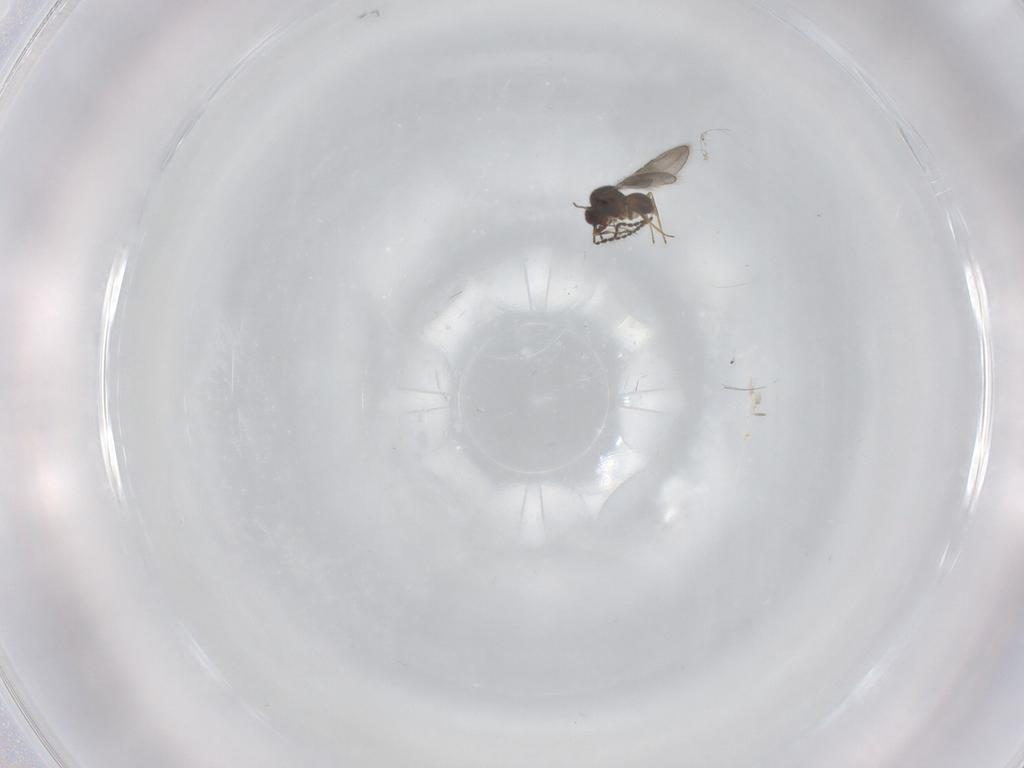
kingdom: Animalia
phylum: Arthropoda
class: Insecta
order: Hymenoptera
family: Ceraphronidae
